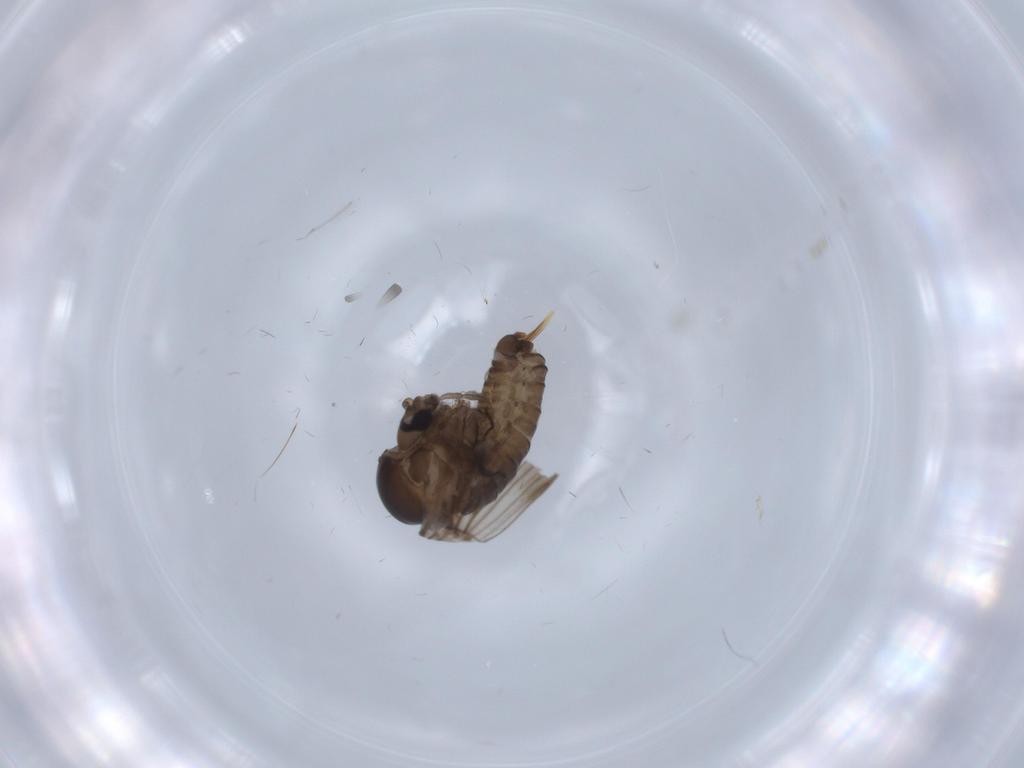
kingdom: Animalia
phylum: Arthropoda
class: Insecta
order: Diptera
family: Psychodidae
